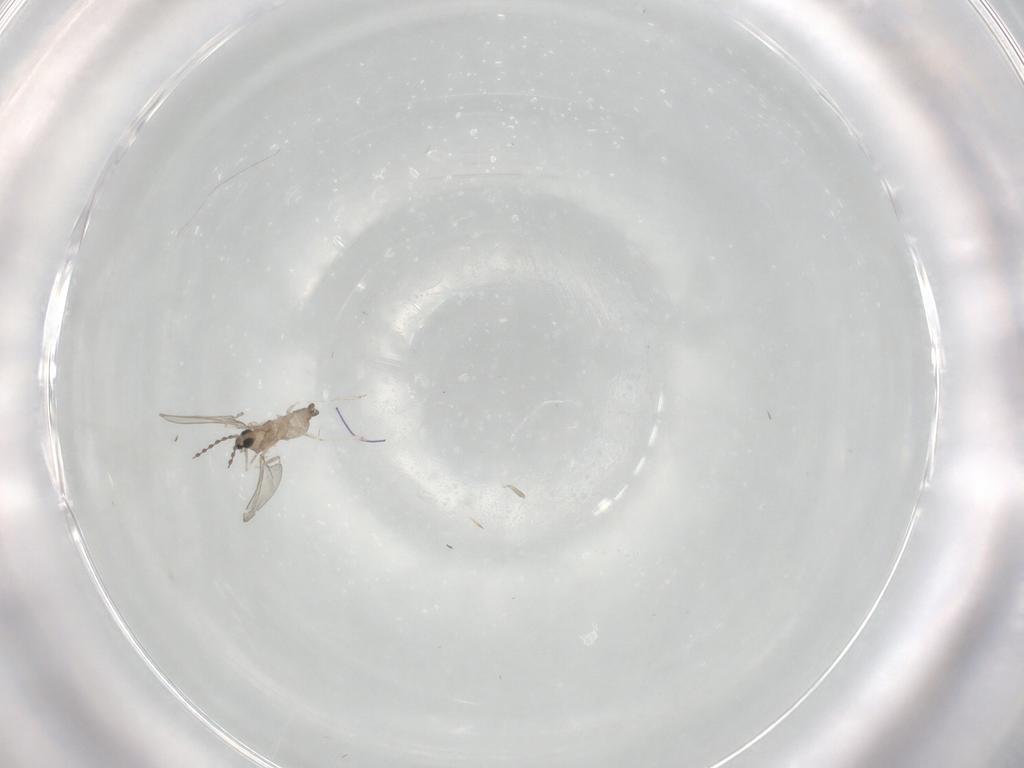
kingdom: Animalia
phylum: Arthropoda
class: Insecta
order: Diptera
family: Chironomidae
